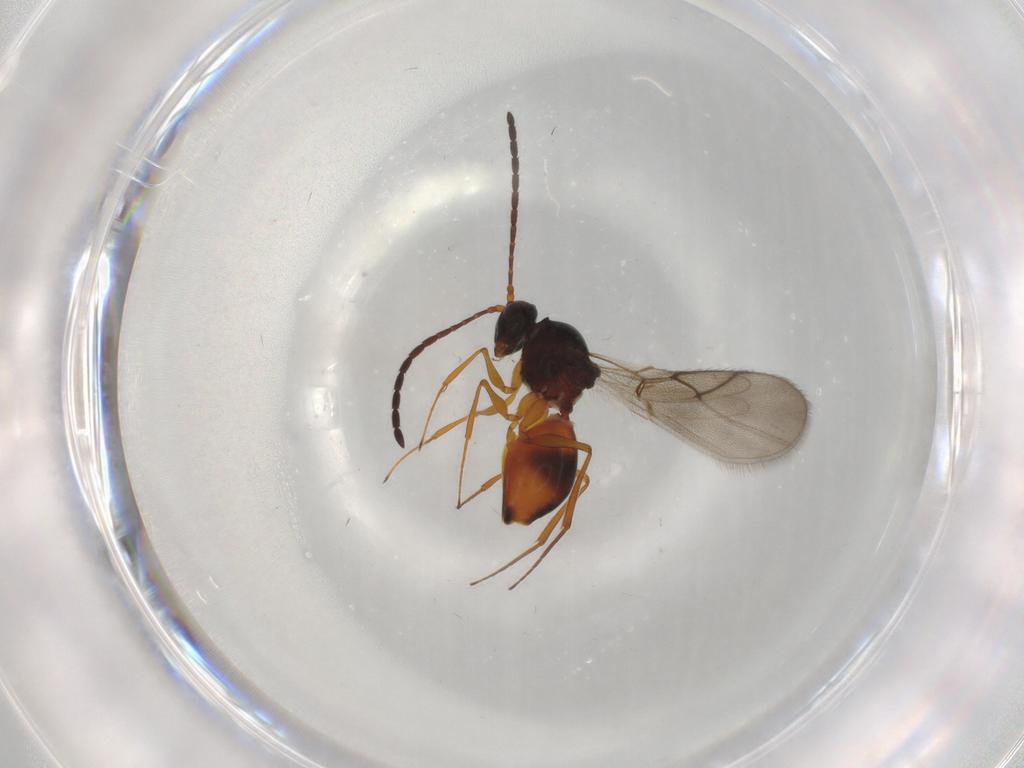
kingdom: Animalia
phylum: Arthropoda
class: Insecta
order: Hymenoptera
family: Figitidae
